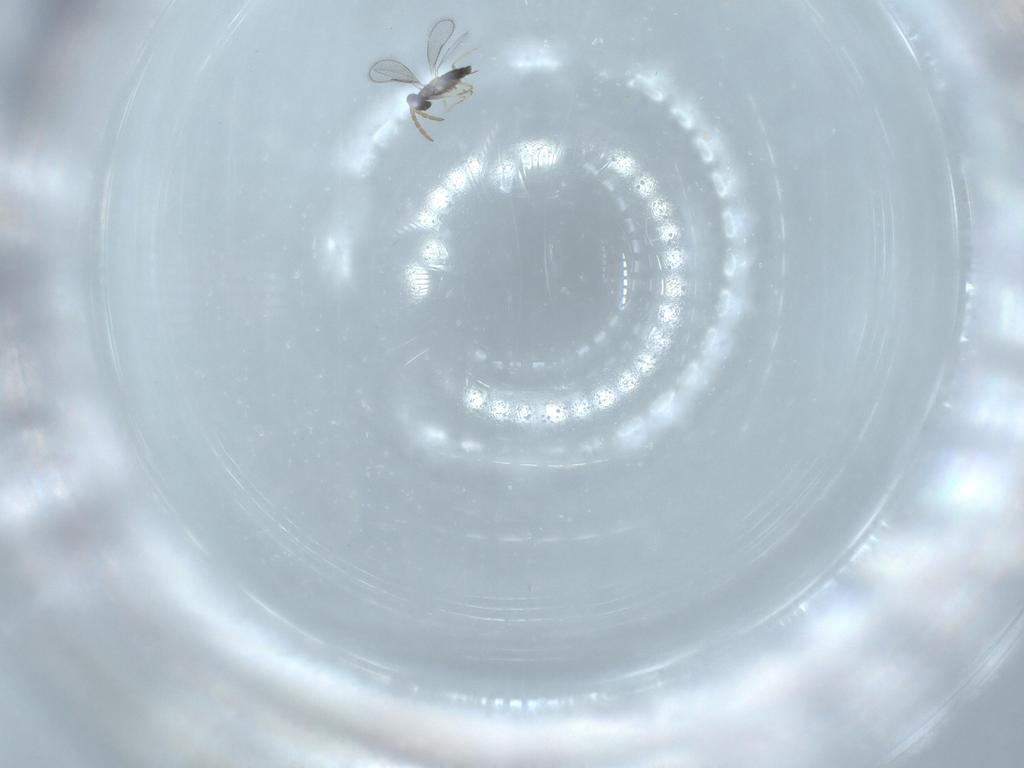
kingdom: Animalia
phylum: Arthropoda
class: Insecta
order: Hymenoptera
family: Aphelinidae
